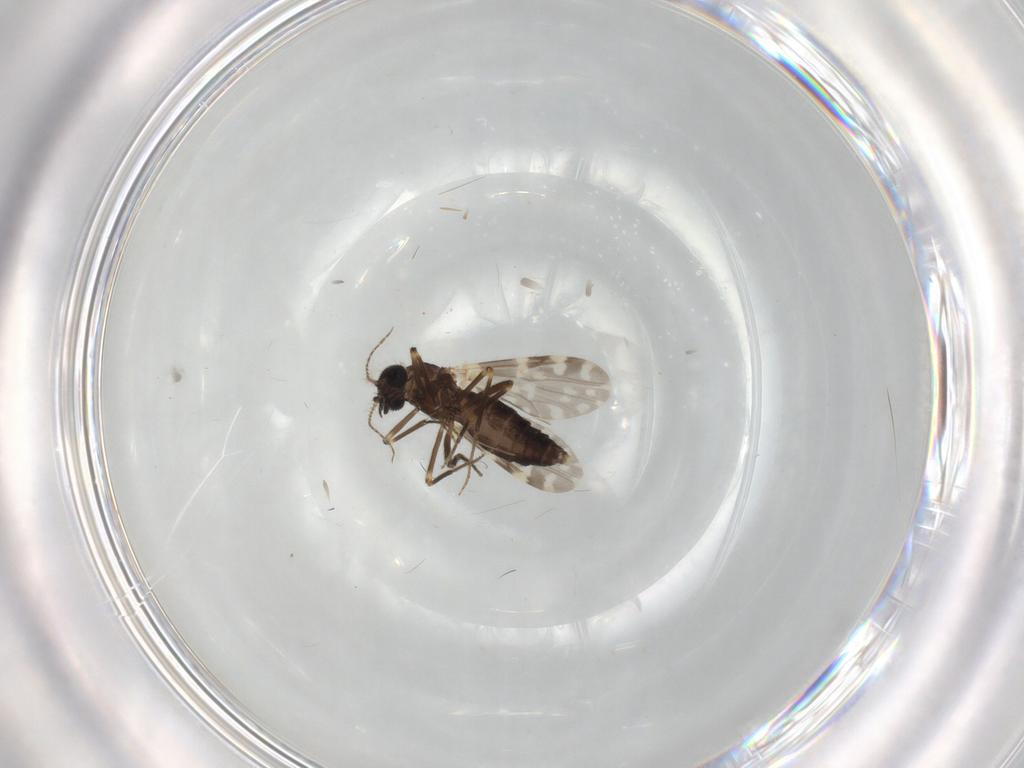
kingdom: Animalia
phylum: Arthropoda
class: Insecta
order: Diptera
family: Ceratopogonidae
